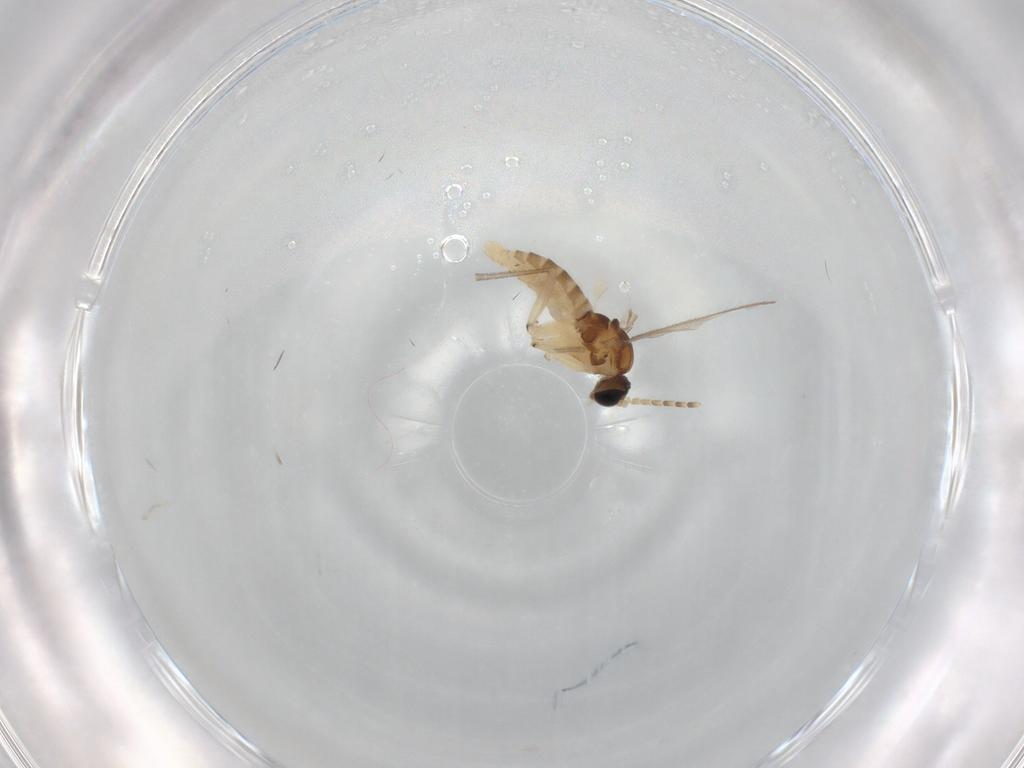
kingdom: Animalia
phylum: Arthropoda
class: Insecta
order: Diptera
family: Sciaridae
